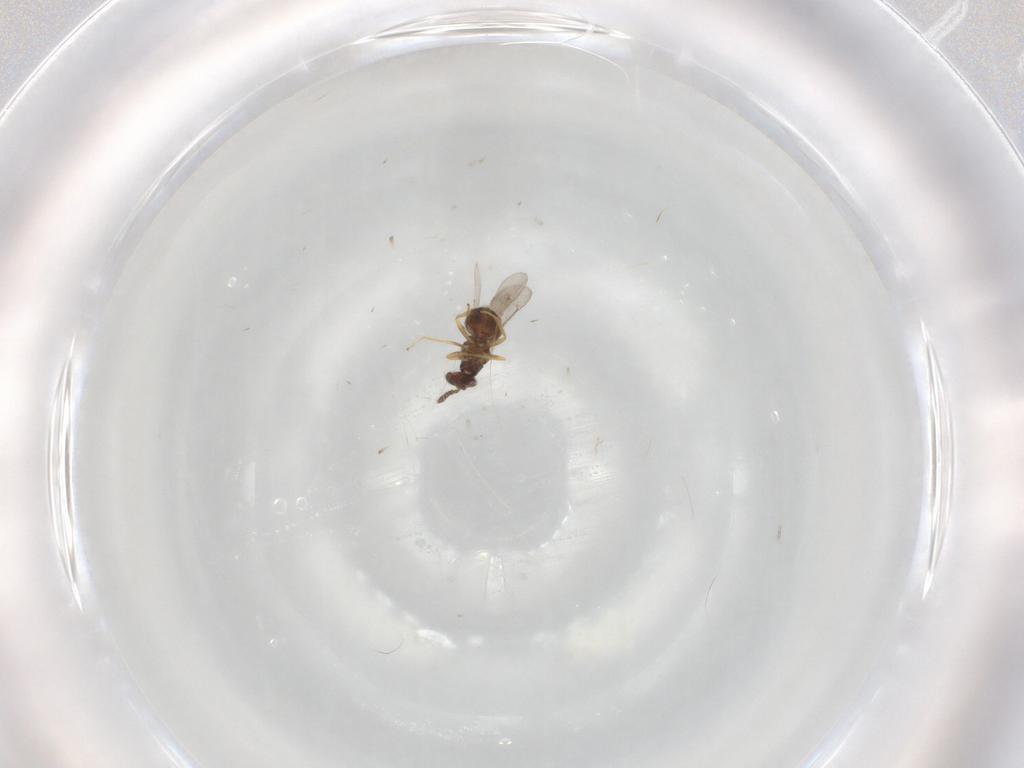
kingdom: Animalia
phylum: Arthropoda
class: Insecta
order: Hymenoptera
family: Eulophidae
